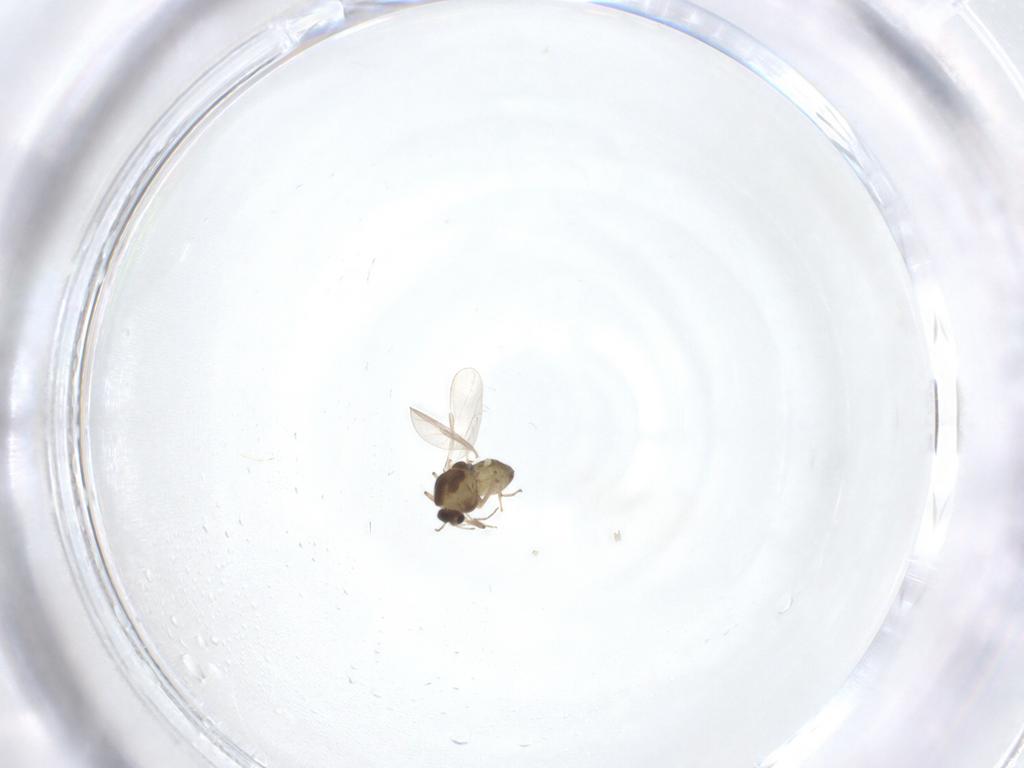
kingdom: Animalia
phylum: Arthropoda
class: Insecta
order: Diptera
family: Chironomidae
